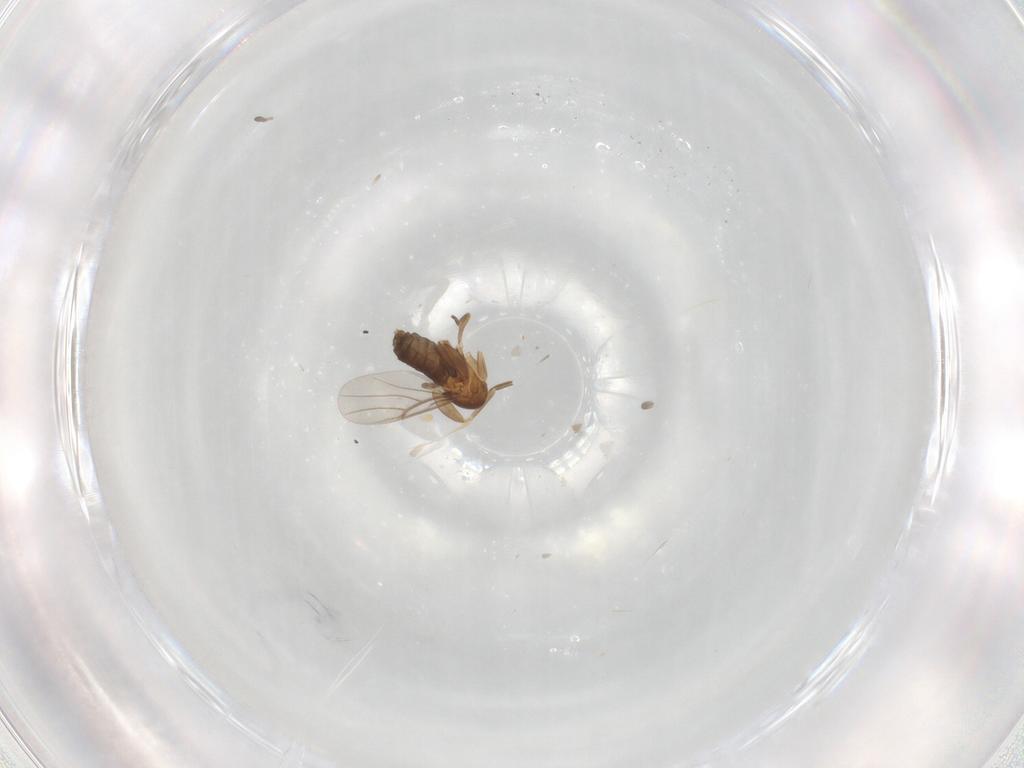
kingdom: Animalia
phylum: Arthropoda
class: Insecta
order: Diptera
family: Phoridae
